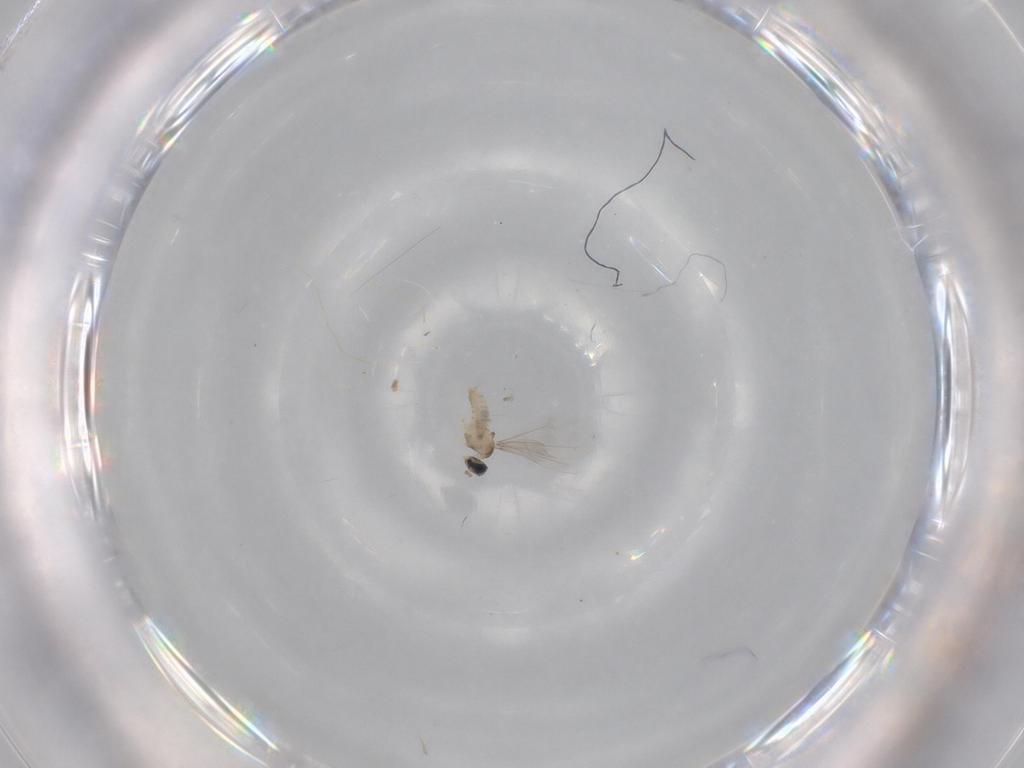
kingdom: Animalia
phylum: Arthropoda
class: Insecta
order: Diptera
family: Cecidomyiidae
